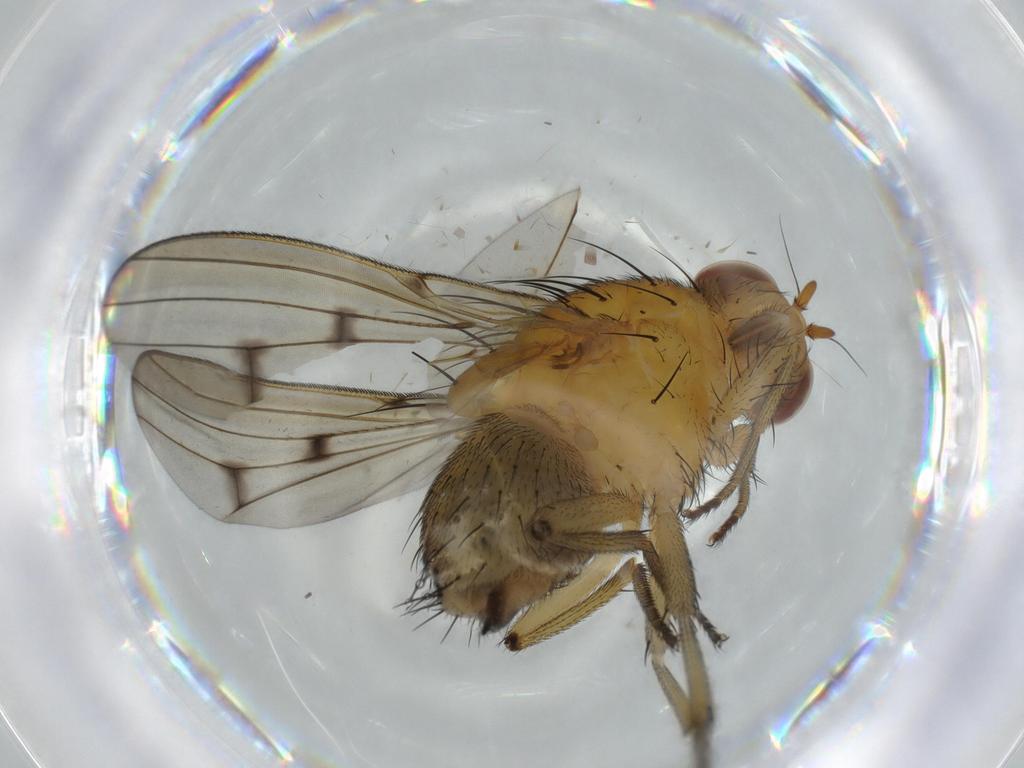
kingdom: Animalia
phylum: Arthropoda
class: Insecta
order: Diptera
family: Lauxaniidae
